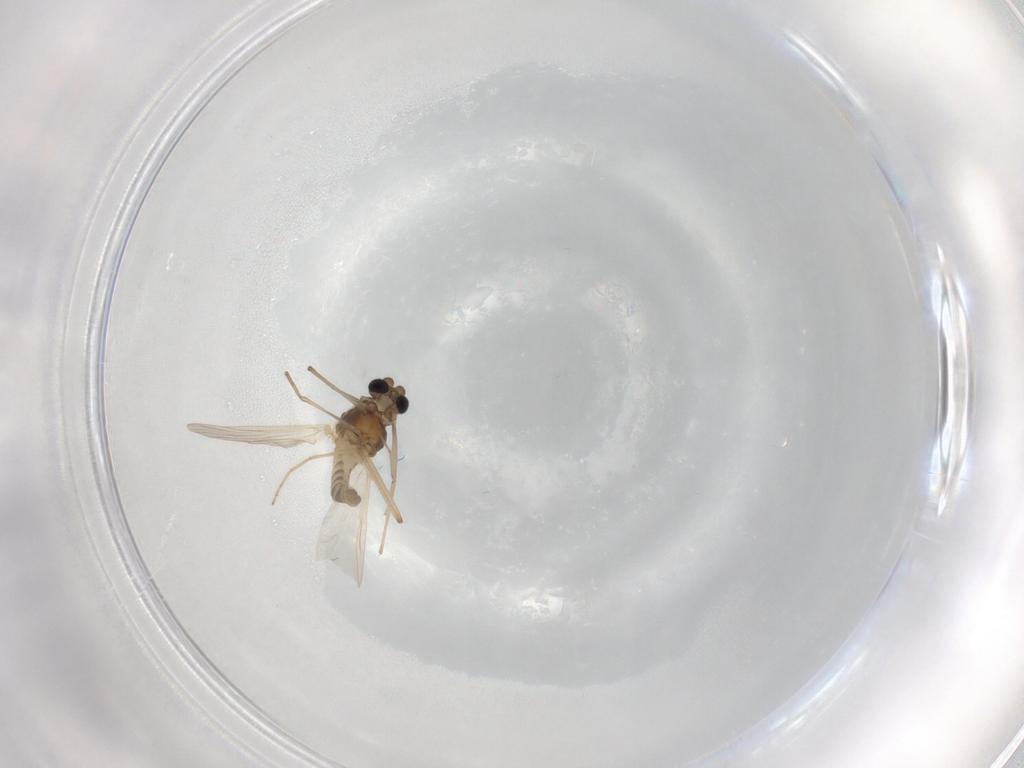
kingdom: Animalia
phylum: Arthropoda
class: Insecta
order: Diptera
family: Chironomidae
